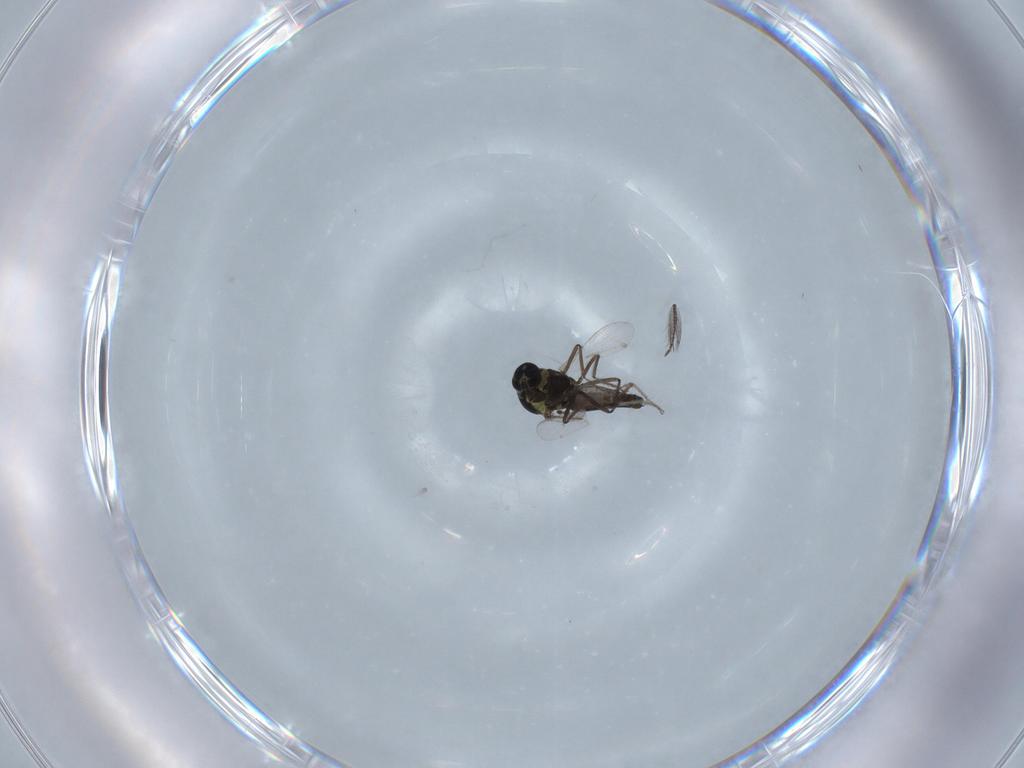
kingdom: Animalia
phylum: Arthropoda
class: Insecta
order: Diptera
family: Ceratopogonidae
